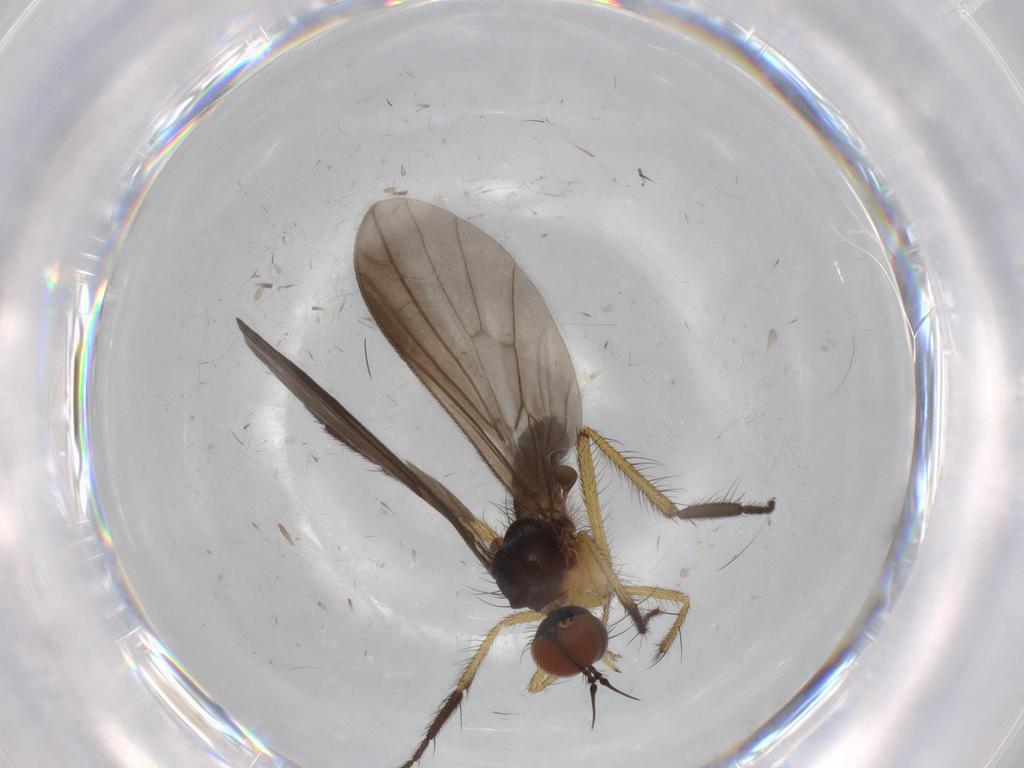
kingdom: Animalia
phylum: Arthropoda
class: Insecta
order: Diptera
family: Empididae
